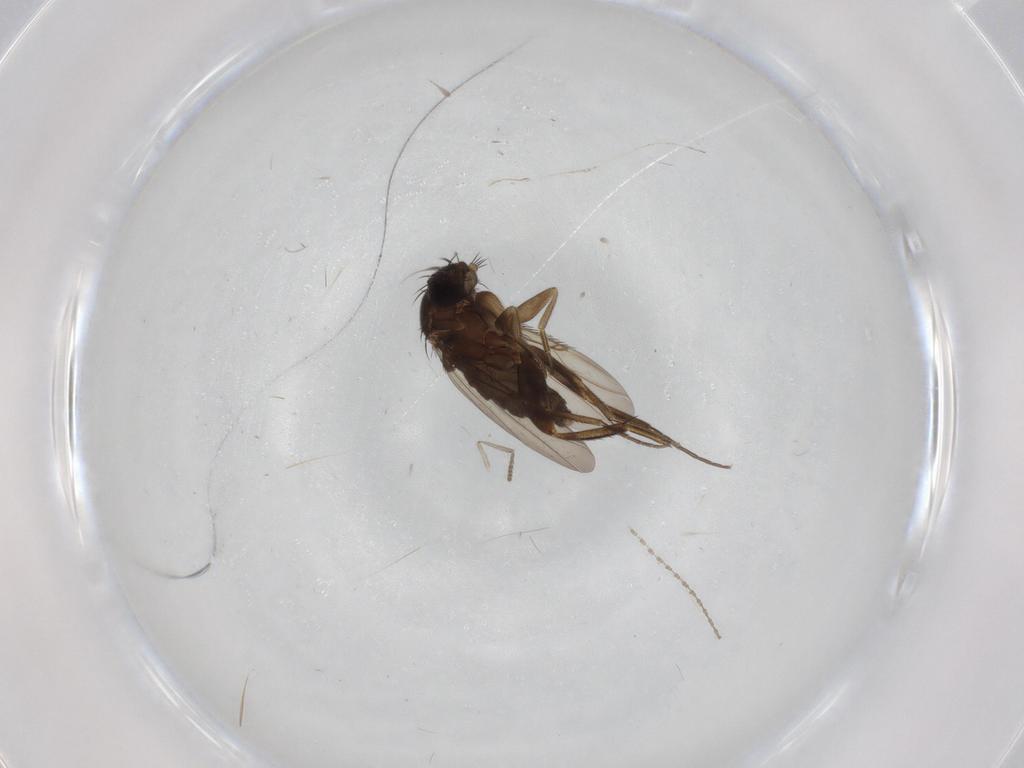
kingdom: Animalia
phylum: Arthropoda
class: Insecta
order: Diptera
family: Phoridae
